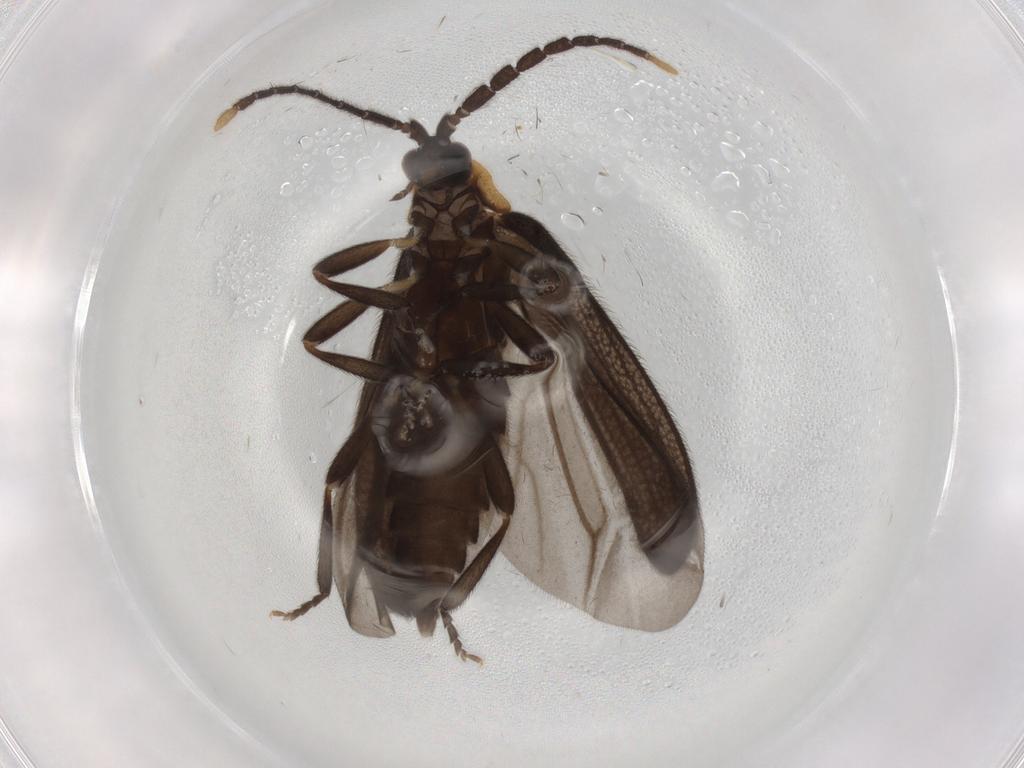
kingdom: Animalia
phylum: Arthropoda
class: Insecta
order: Coleoptera
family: Lycidae
